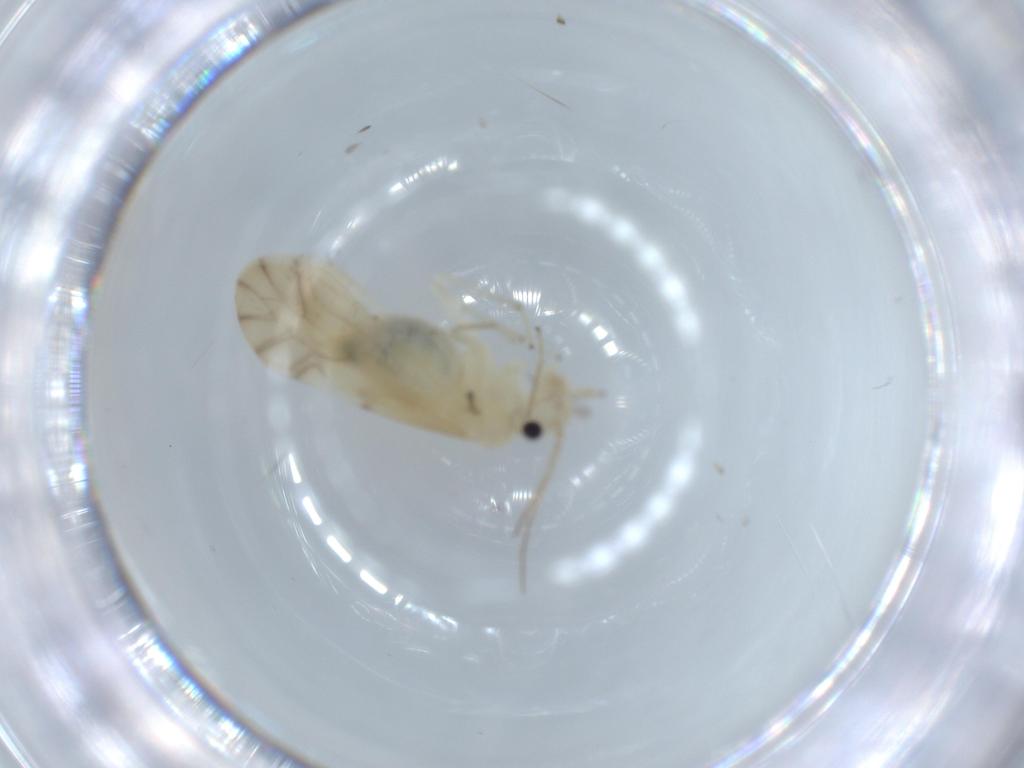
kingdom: Animalia
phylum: Arthropoda
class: Insecta
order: Psocodea
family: Caeciliusidae
